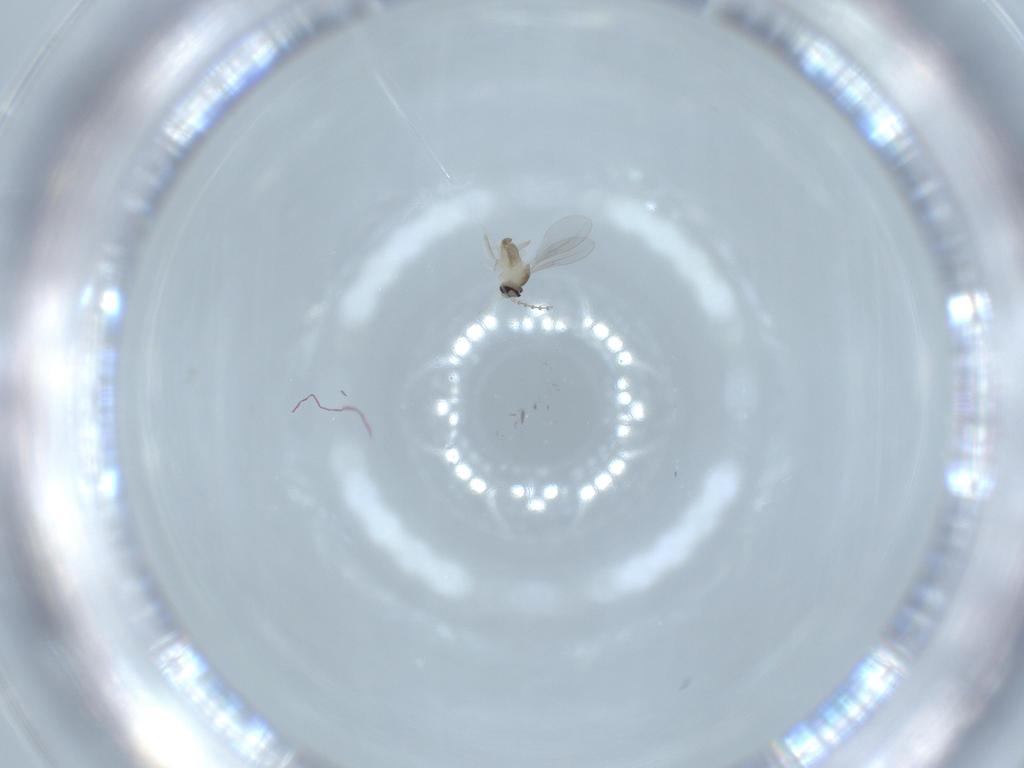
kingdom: Animalia
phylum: Arthropoda
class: Insecta
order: Diptera
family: Cecidomyiidae
